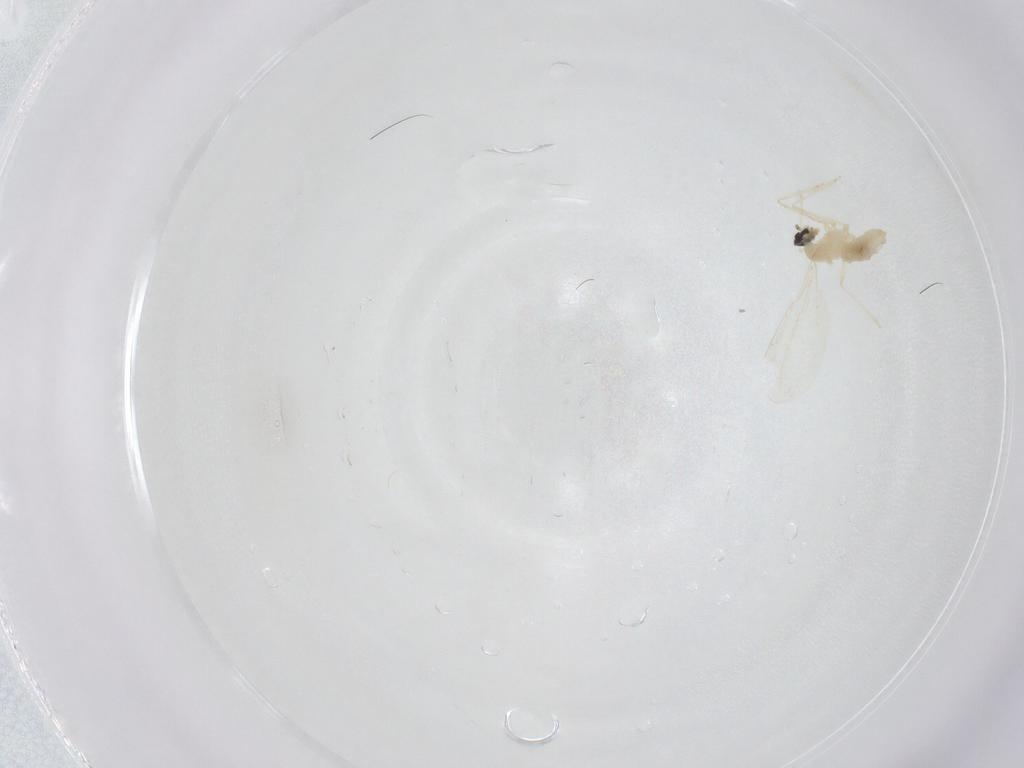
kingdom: Animalia
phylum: Arthropoda
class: Insecta
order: Diptera
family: Cecidomyiidae
